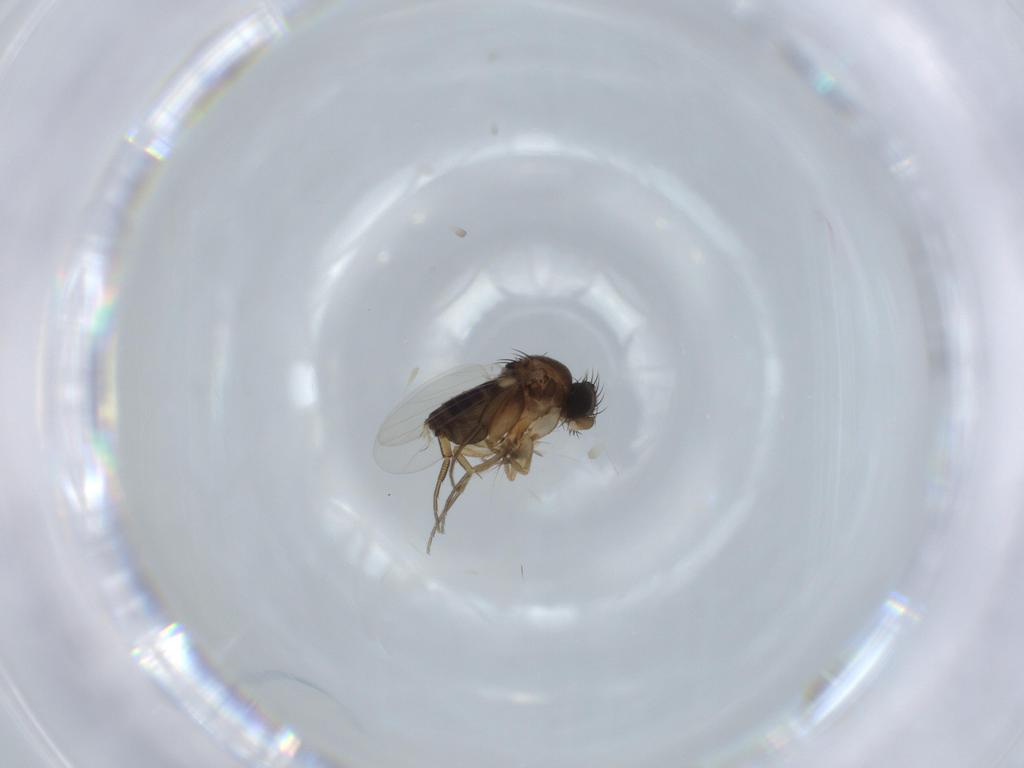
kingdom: Animalia
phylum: Arthropoda
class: Insecta
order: Diptera
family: Phoridae
